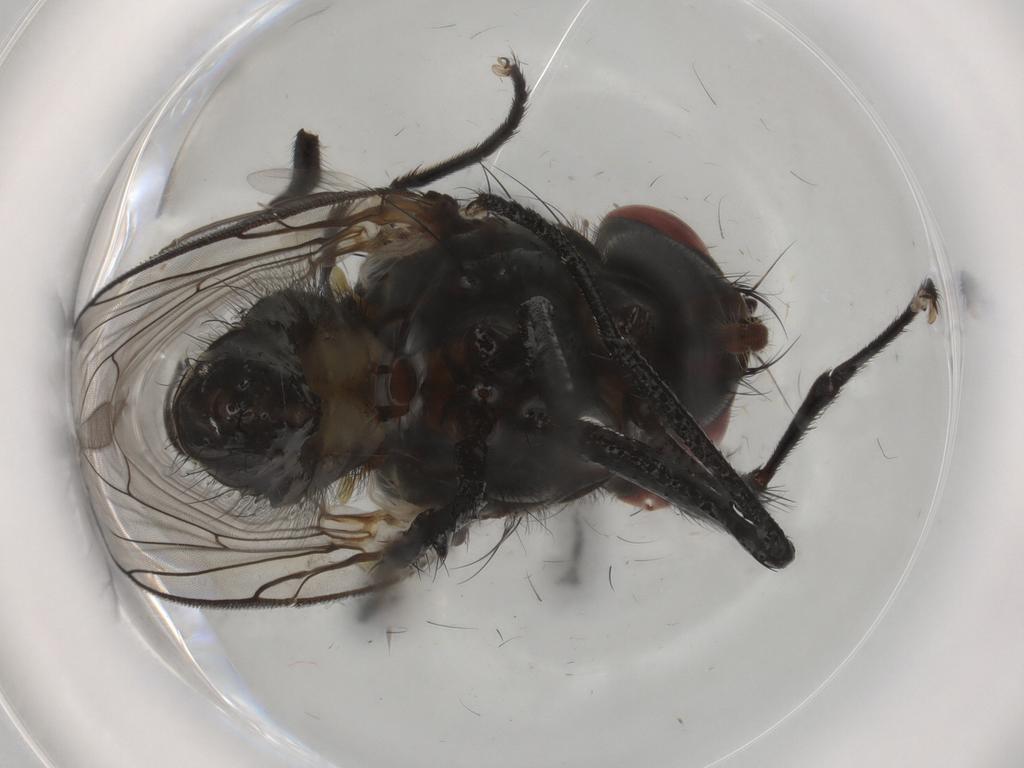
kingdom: Animalia
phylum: Arthropoda
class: Insecta
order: Diptera
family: Anthomyiidae
